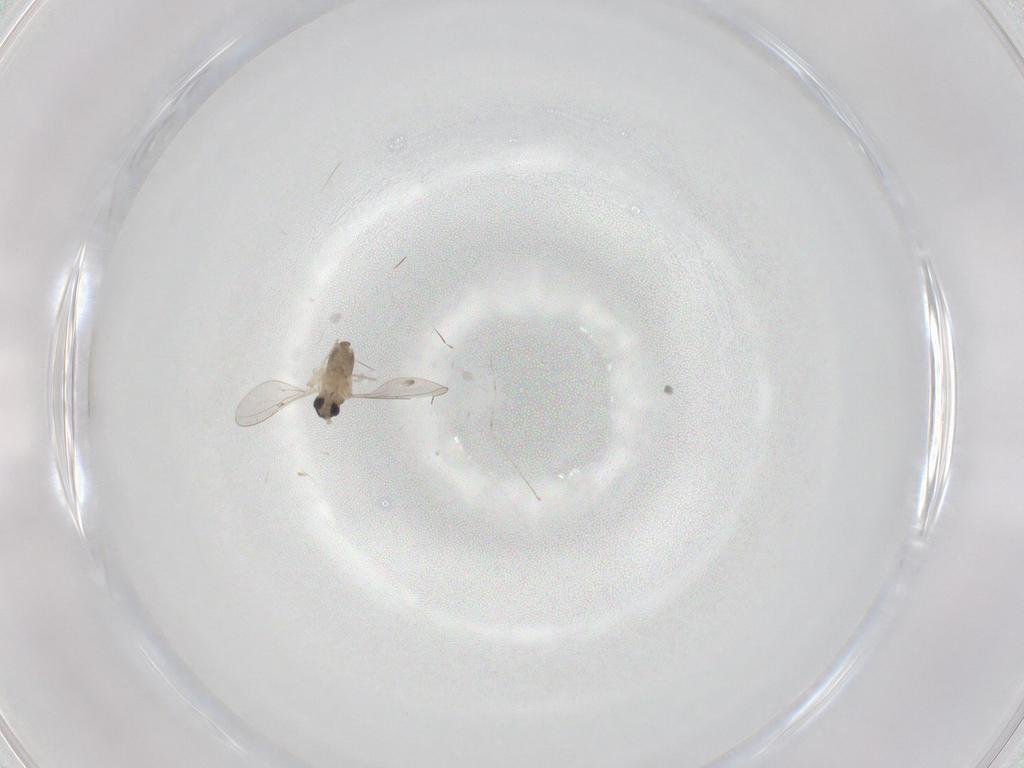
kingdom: Animalia
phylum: Arthropoda
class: Insecta
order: Diptera
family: Cecidomyiidae
